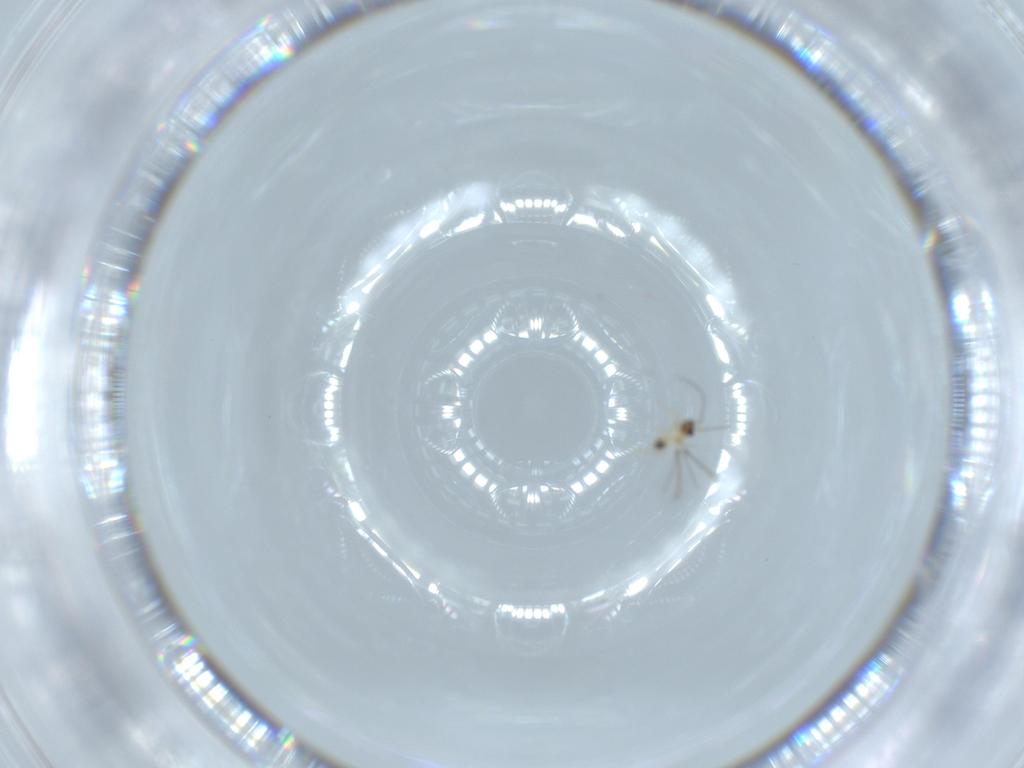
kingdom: Animalia
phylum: Arthropoda
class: Insecta
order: Hymenoptera
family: Mymaridae
